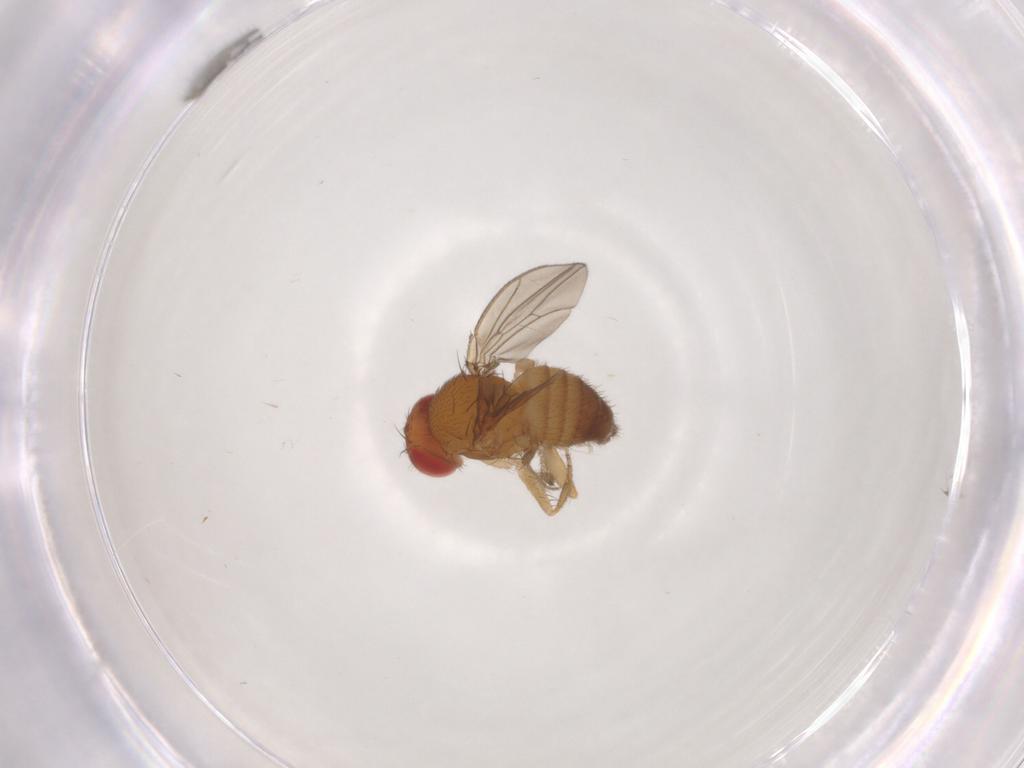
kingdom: Animalia
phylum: Arthropoda
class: Insecta
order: Diptera
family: Drosophilidae
